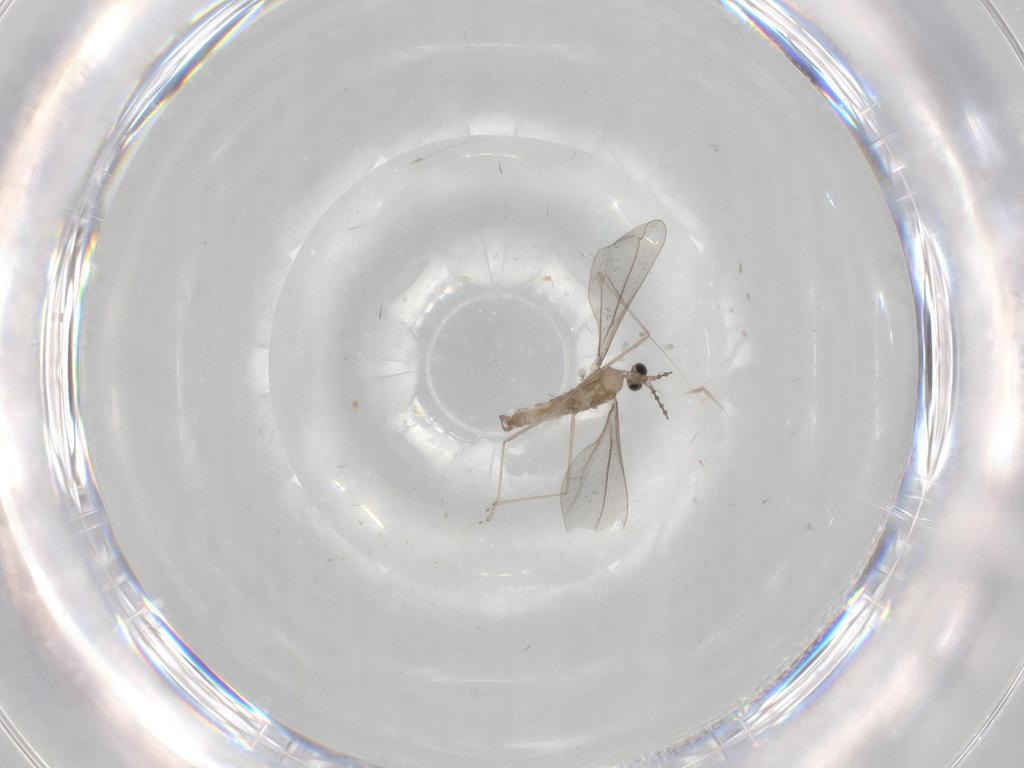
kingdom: Animalia
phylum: Arthropoda
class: Insecta
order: Diptera
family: Cecidomyiidae
